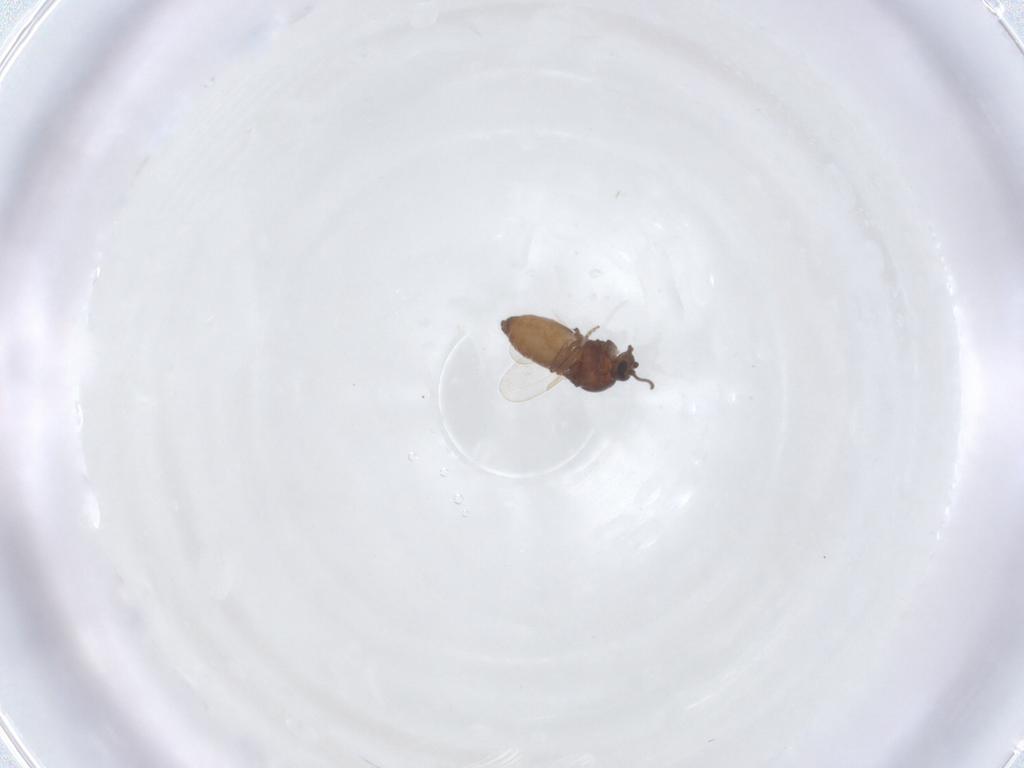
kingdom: Animalia
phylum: Arthropoda
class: Insecta
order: Diptera
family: Ceratopogonidae
